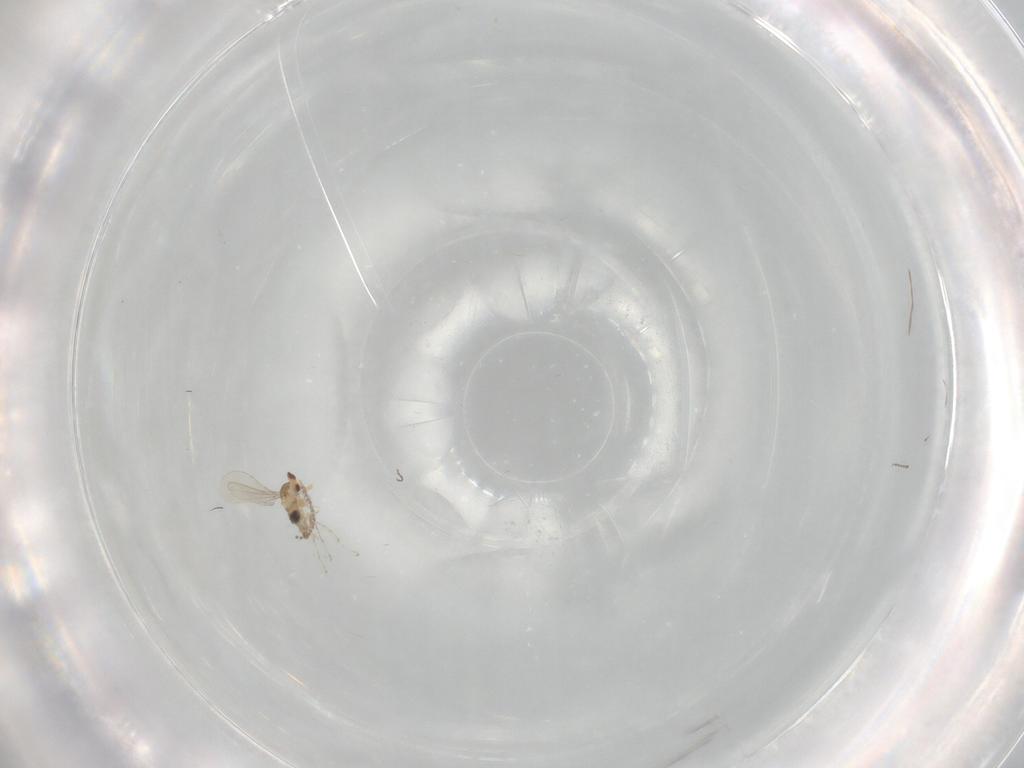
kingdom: Animalia
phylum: Arthropoda
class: Insecta
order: Diptera
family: Cecidomyiidae
